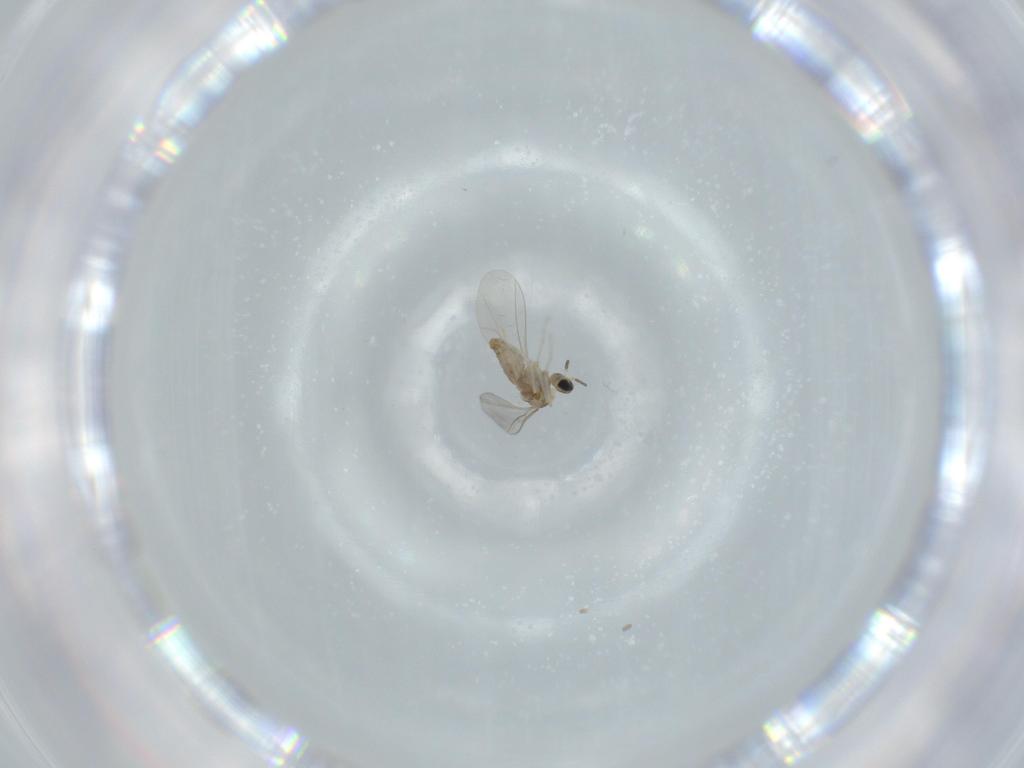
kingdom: Animalia
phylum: Arthropoda
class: Insecta
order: Diptera
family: Cecidomyiidae
